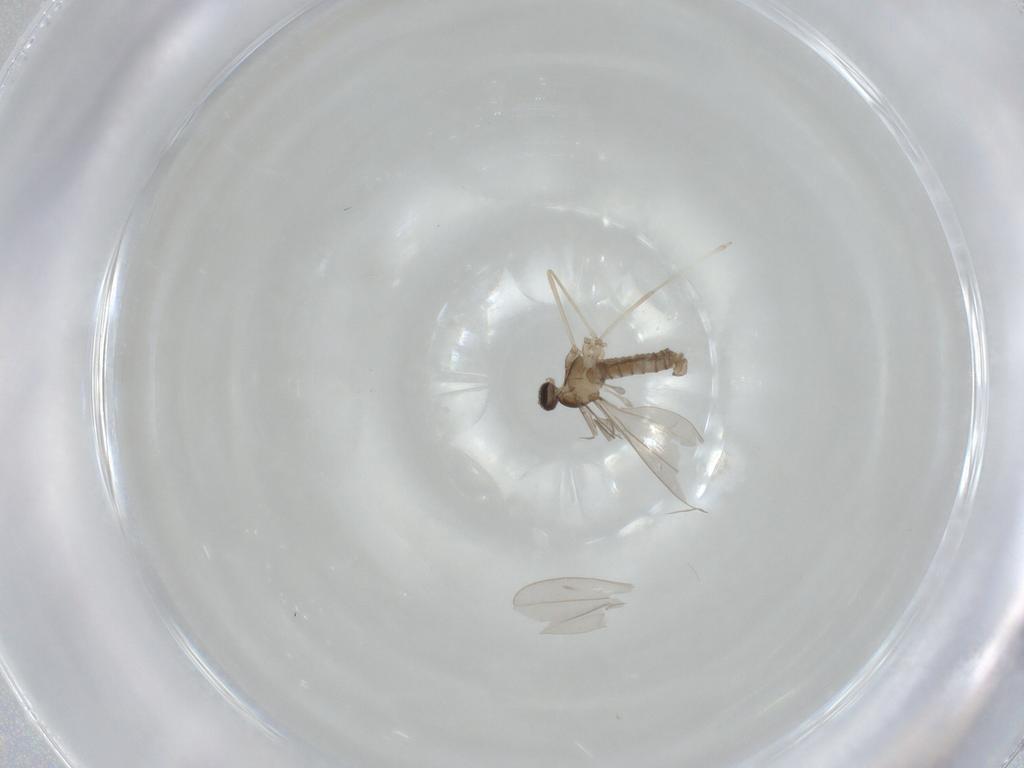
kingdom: Animalia
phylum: Arthropoda
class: Insecta
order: Diptera
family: Cecidomyiidae
